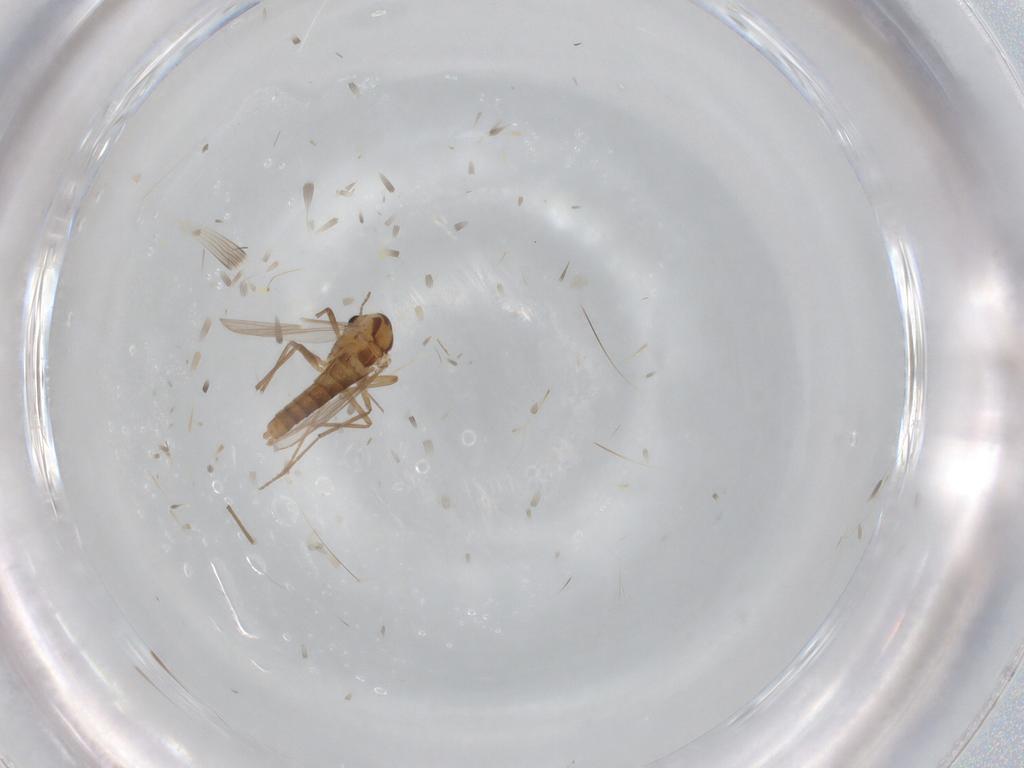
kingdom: Animalia
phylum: Arthropoda
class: Insecta
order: Diptera
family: Chironomidae
